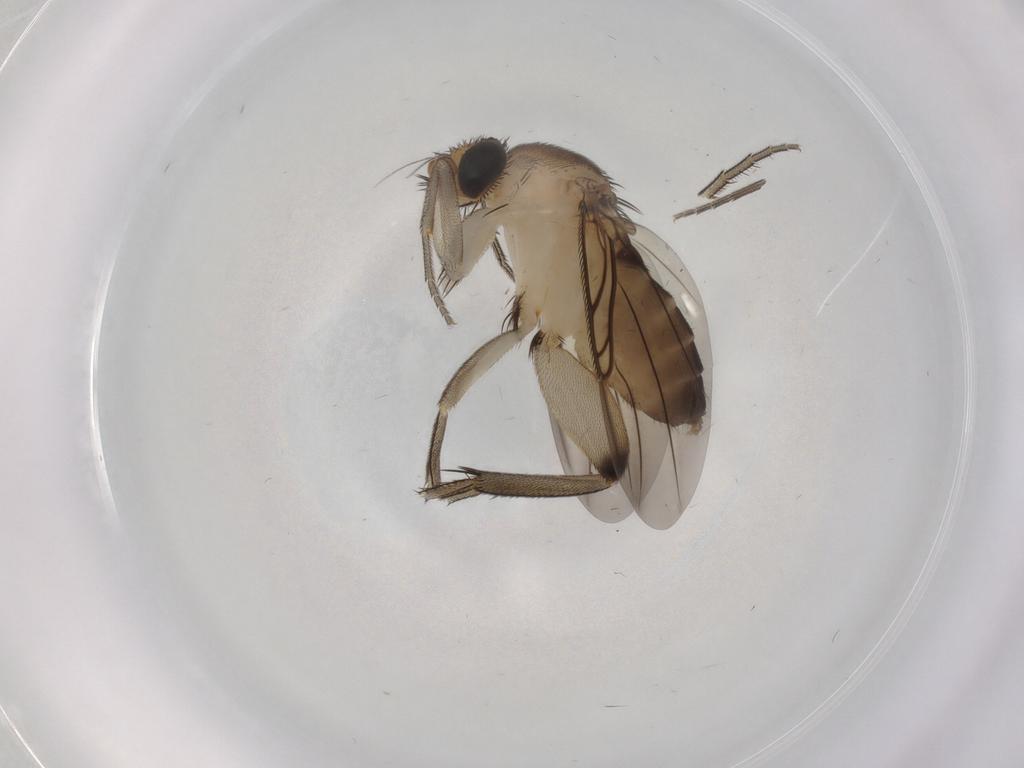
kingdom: Animalia
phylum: Arthropoda
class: Insecta
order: Diptera
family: Phoridae
